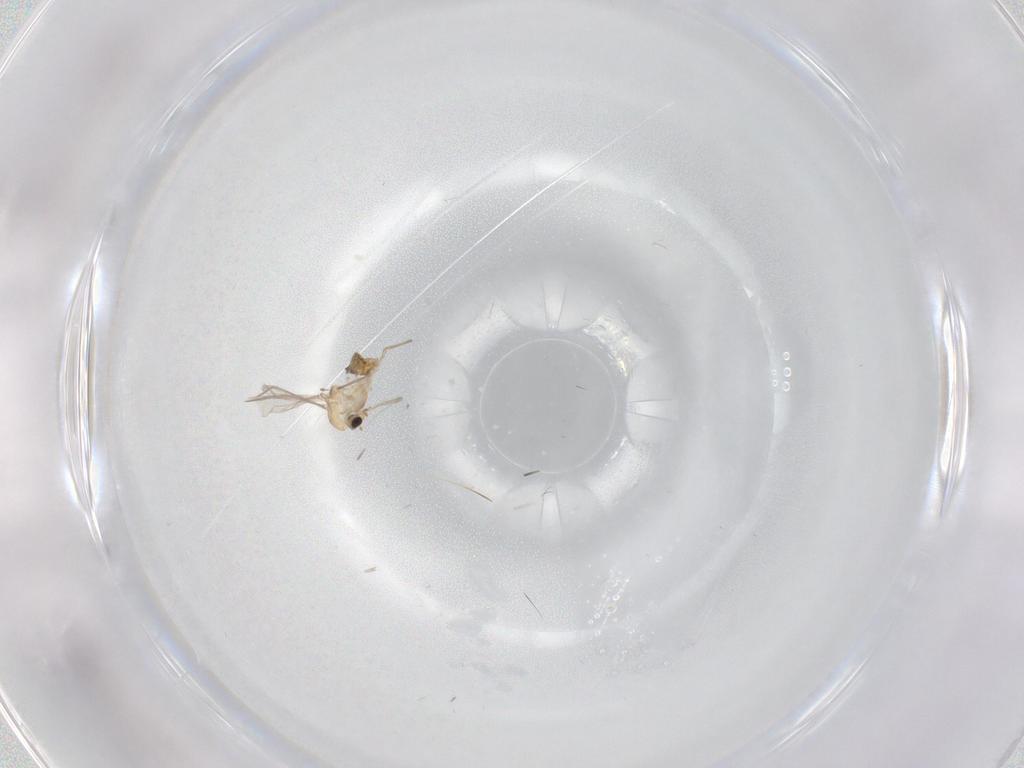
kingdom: Animalia
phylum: Arthropoda
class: Insecta
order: Diptera
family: Chironomidae
